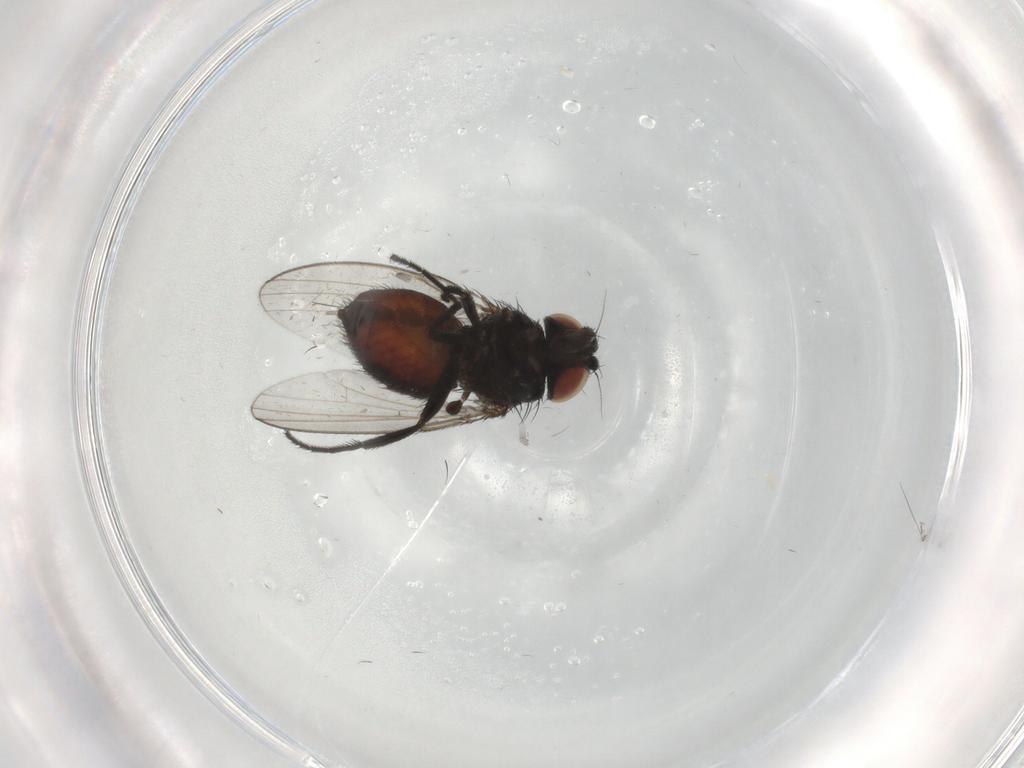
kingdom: Animalia
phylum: Arthropoda
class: Insecta
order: Diptera
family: Milichiidae
